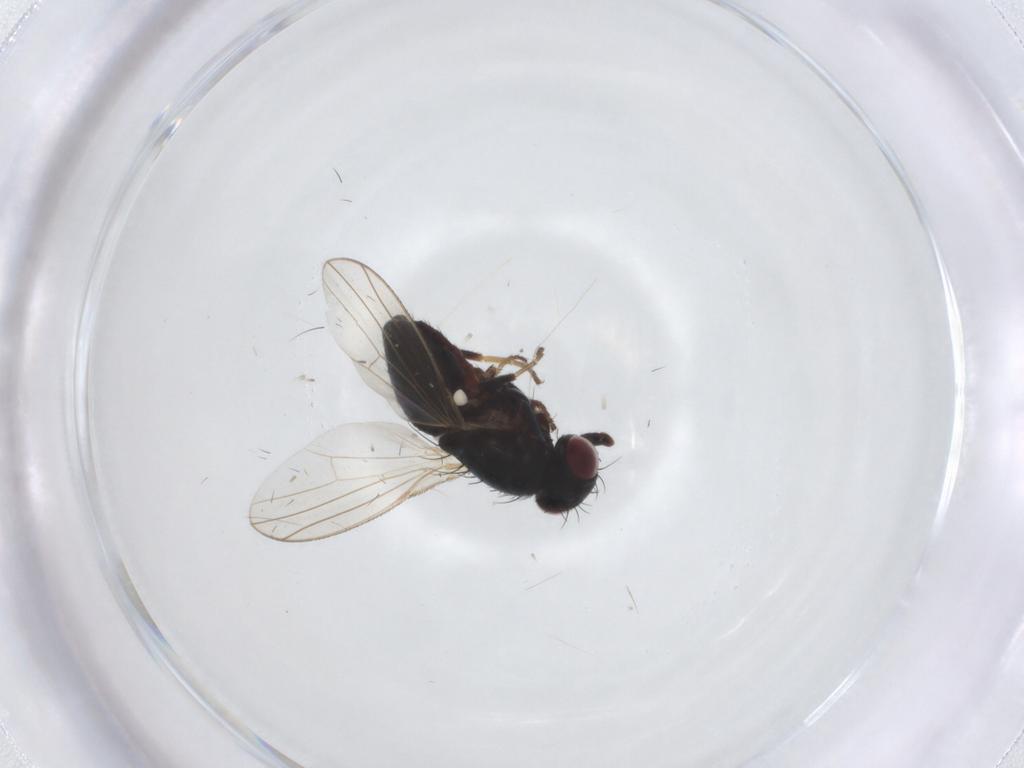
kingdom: Animalia
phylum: Arthropoda
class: Insecta
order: Diptera
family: Carnidae
